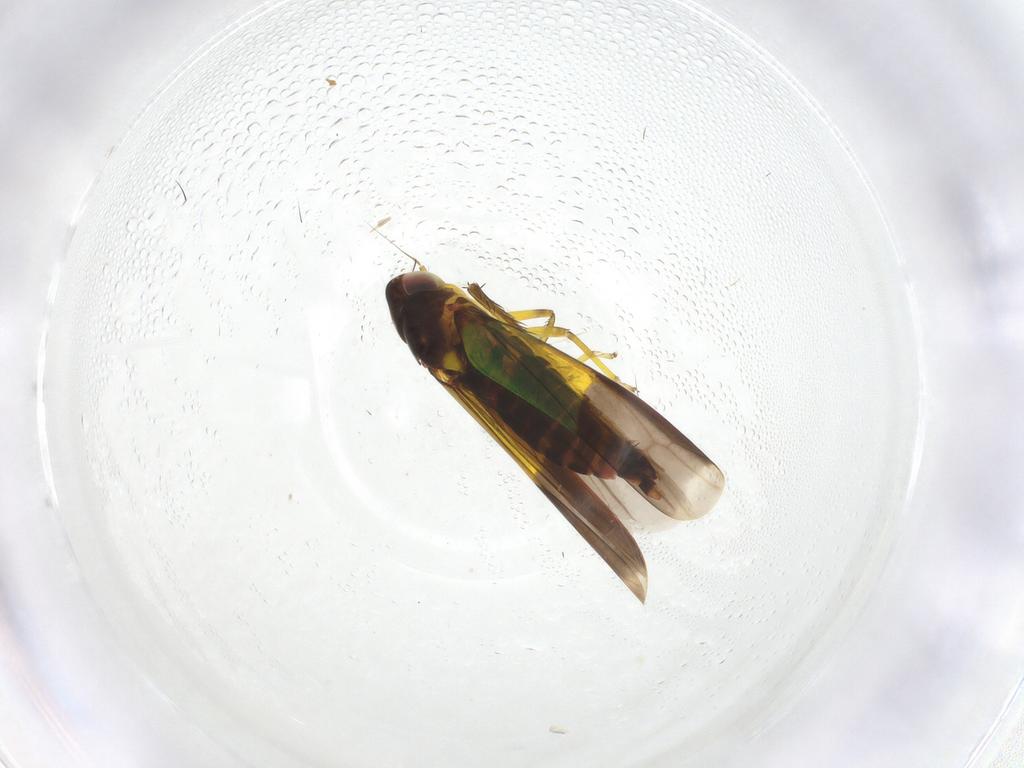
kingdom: Animalia
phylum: Arthropoda
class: Insecta
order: Hemiptera
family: Cicadellidae
